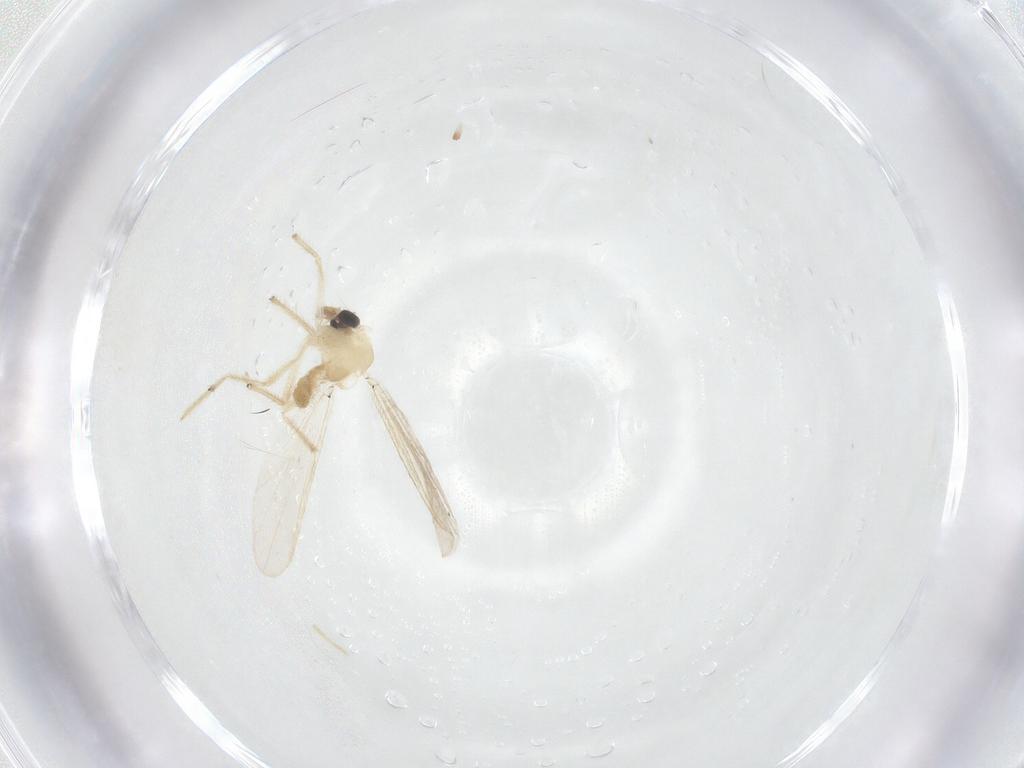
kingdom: Animalia
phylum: Arthropoda
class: Insecta
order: Diptera
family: Chironomidae
